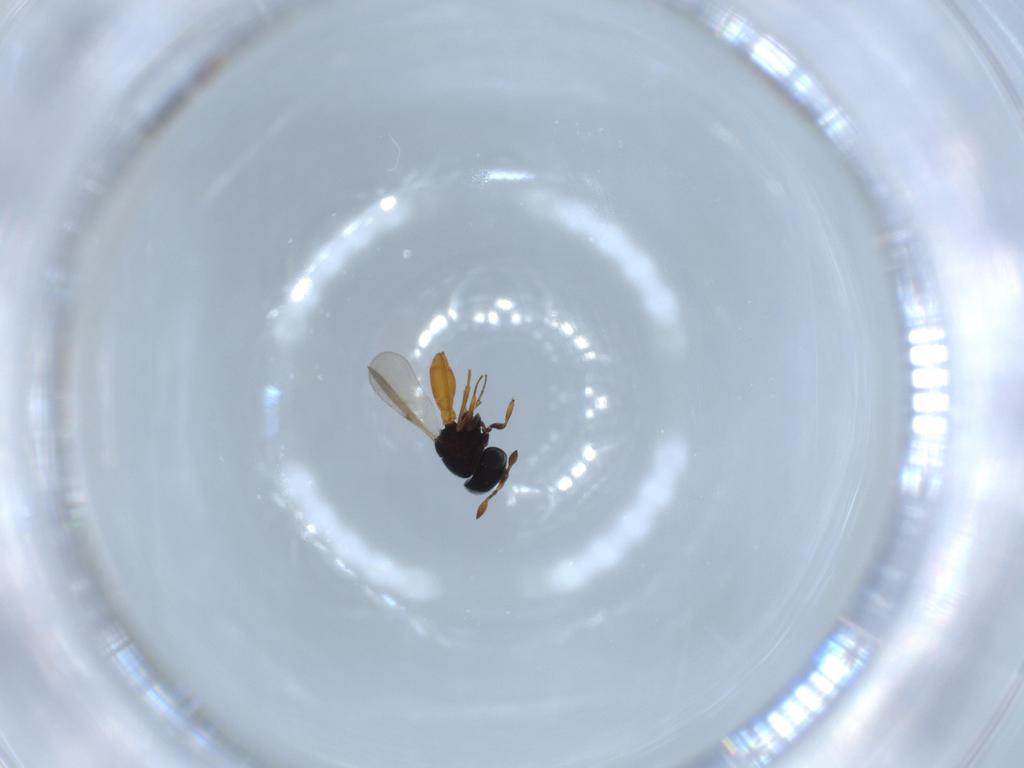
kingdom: Animalia
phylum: Arthropoda
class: Insecta
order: Hymenoptera
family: Scelionidae
